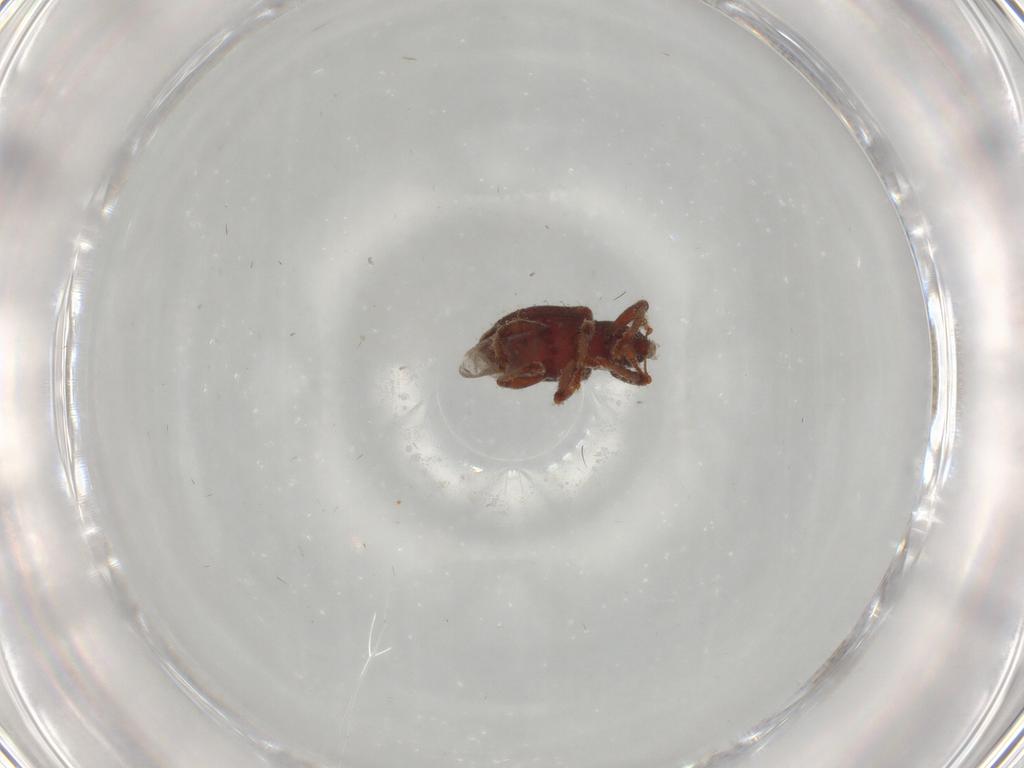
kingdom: Animalia
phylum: Arthropoda
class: Insecta
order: Coleoptera
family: Curculionidae
